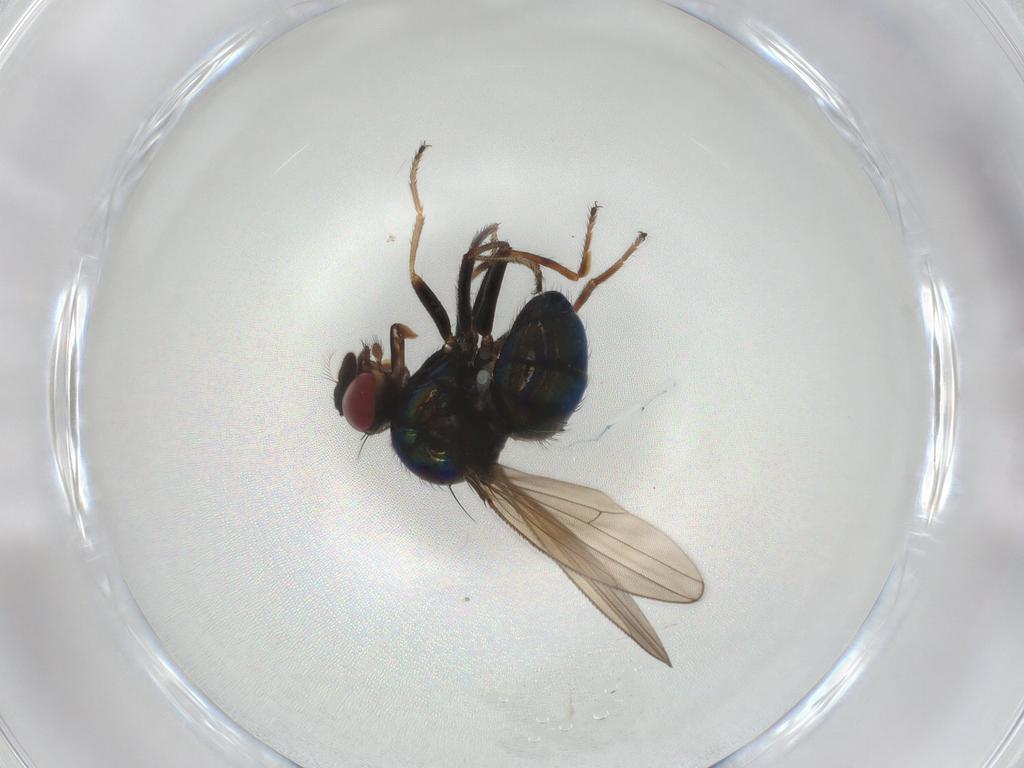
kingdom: Animalia
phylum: Arthropoda
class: Insecta
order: Diptera
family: Ephydridae
